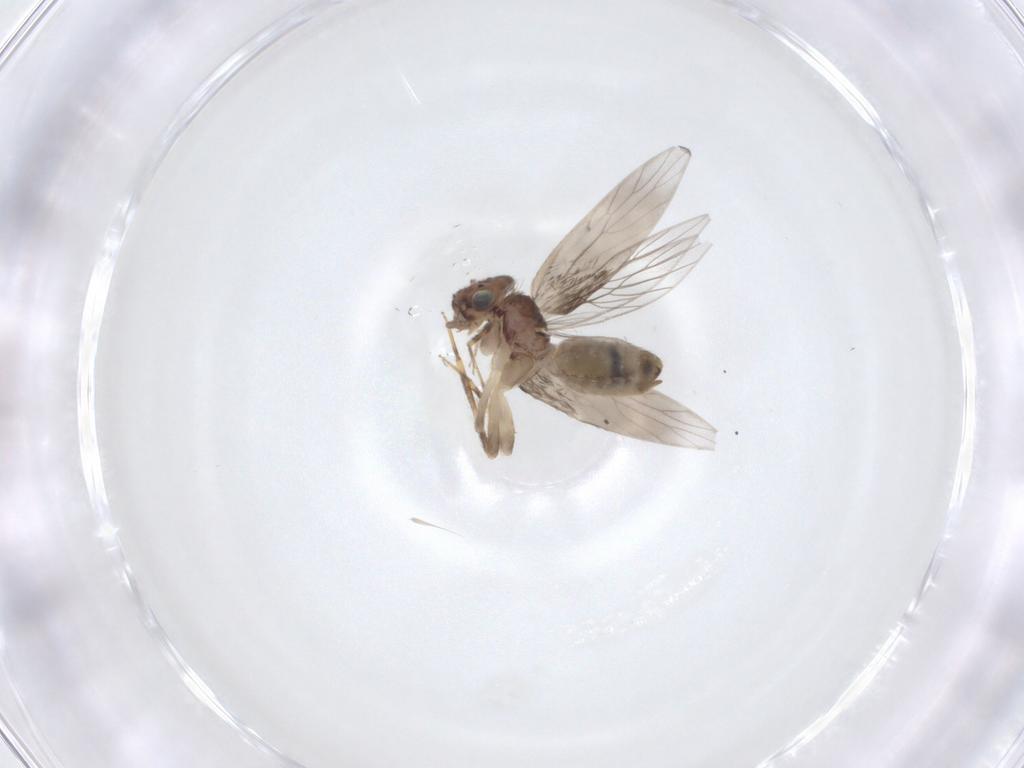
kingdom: Animalia
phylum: Arthropoda
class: Insecta
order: Psocodea
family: Lepidopsocidae
